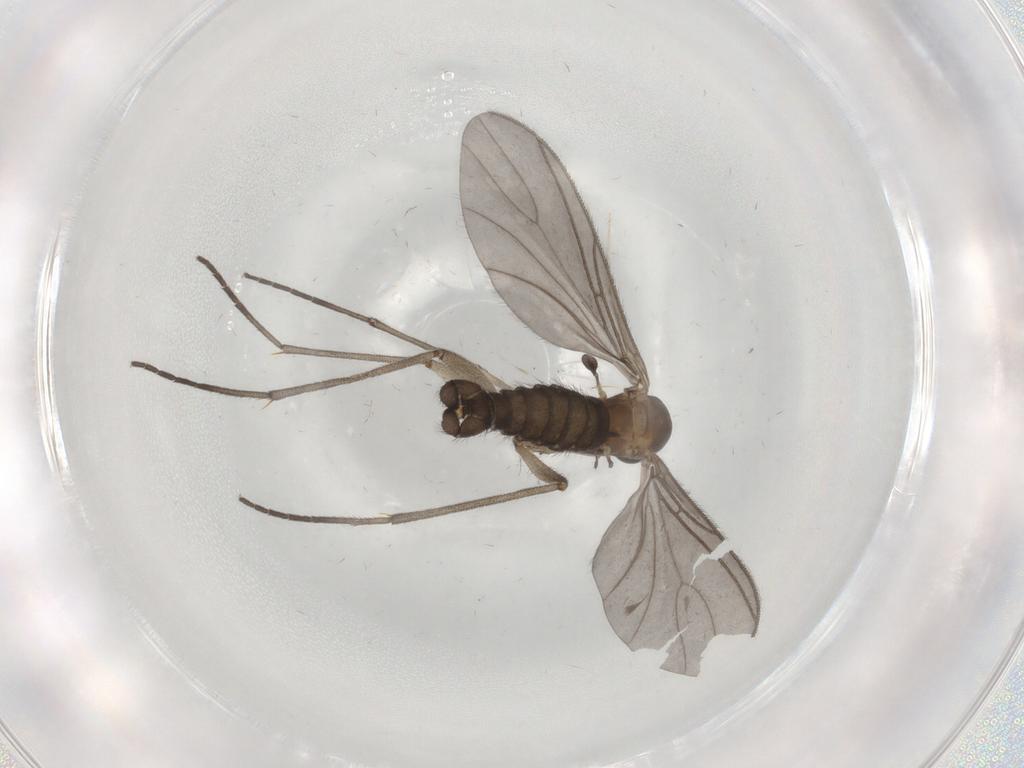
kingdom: Animalia
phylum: Arthropoda
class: Insecta
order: Diptera
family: Sciaridae
